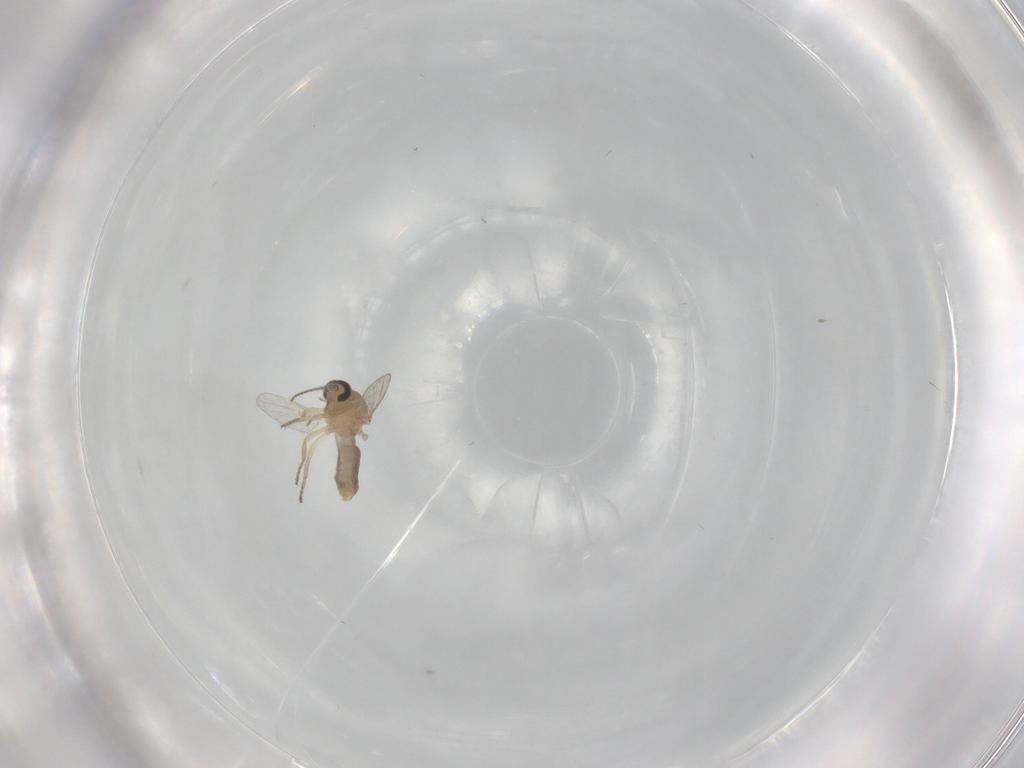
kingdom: Animalia
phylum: Arthropoda
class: Insecta
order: Diptera
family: Ceratopogonidae
